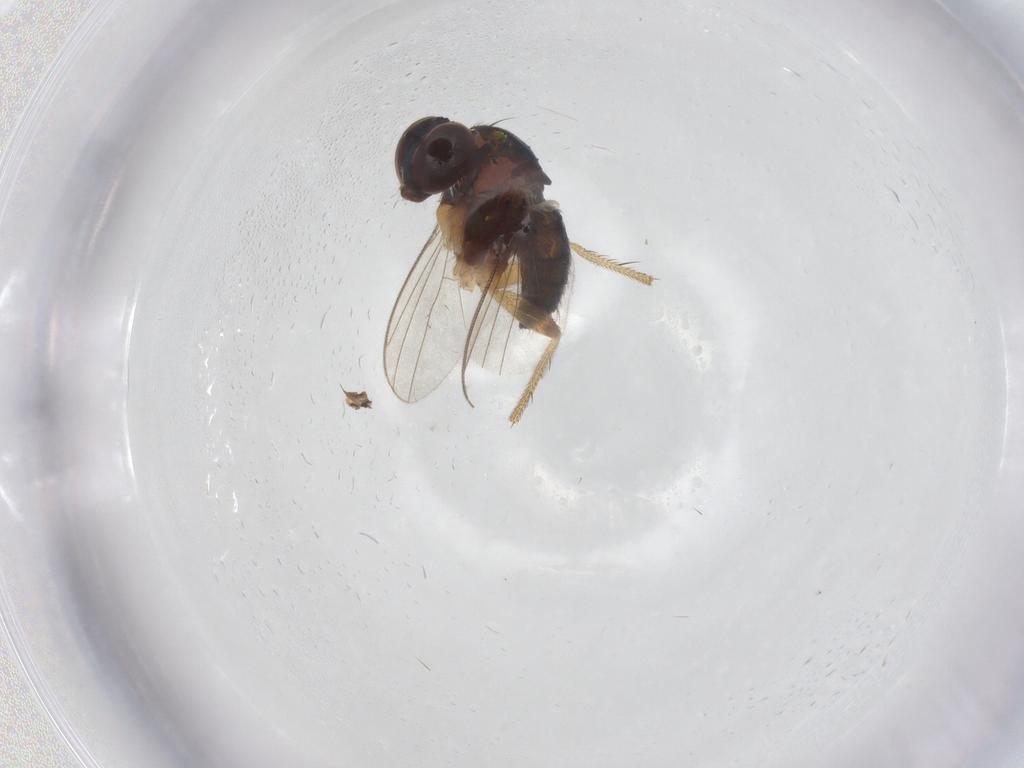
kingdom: Animalia
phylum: Arthropoda
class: Insecta
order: Diptera
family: Dolichopodidae
